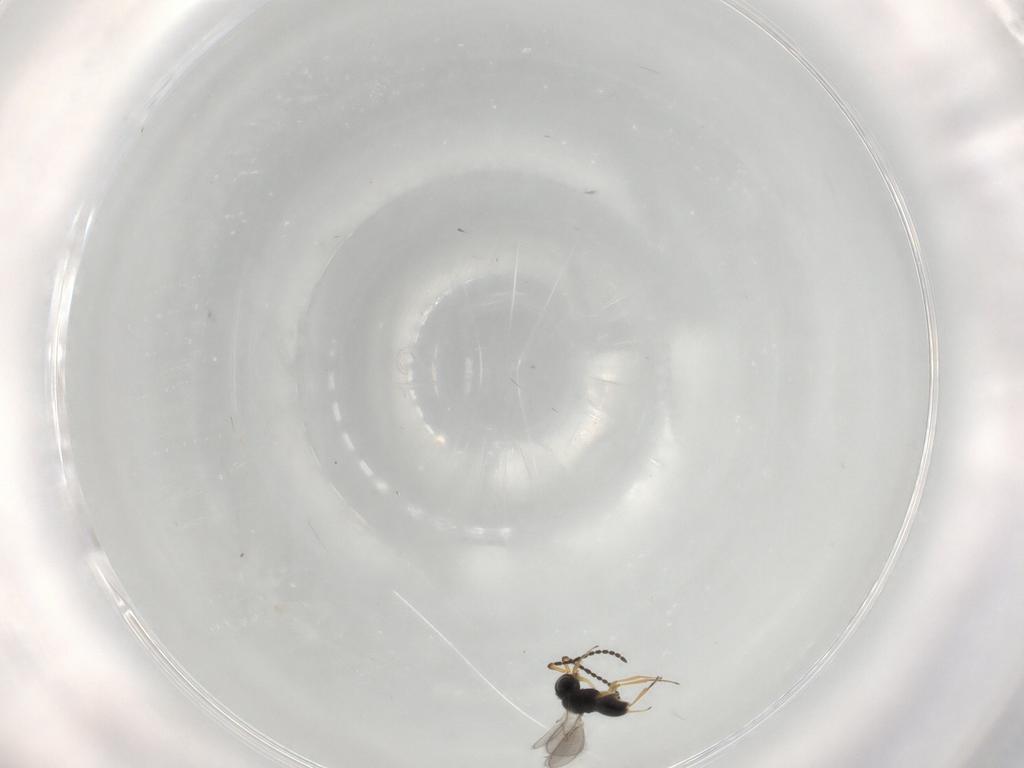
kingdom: Animalia
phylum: Arthropoda
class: Insecta
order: Hymenoptera
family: Scelionidae
